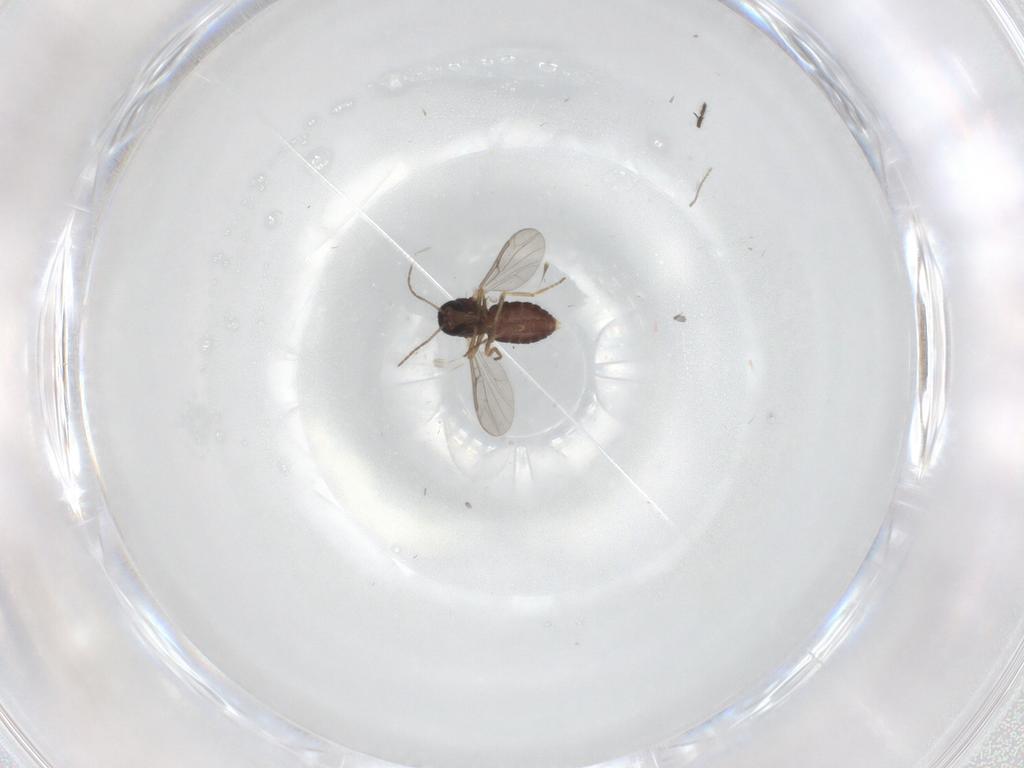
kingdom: Animalia
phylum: Arthropoda
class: Insecta
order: Diptera
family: Ceratopogonidae
